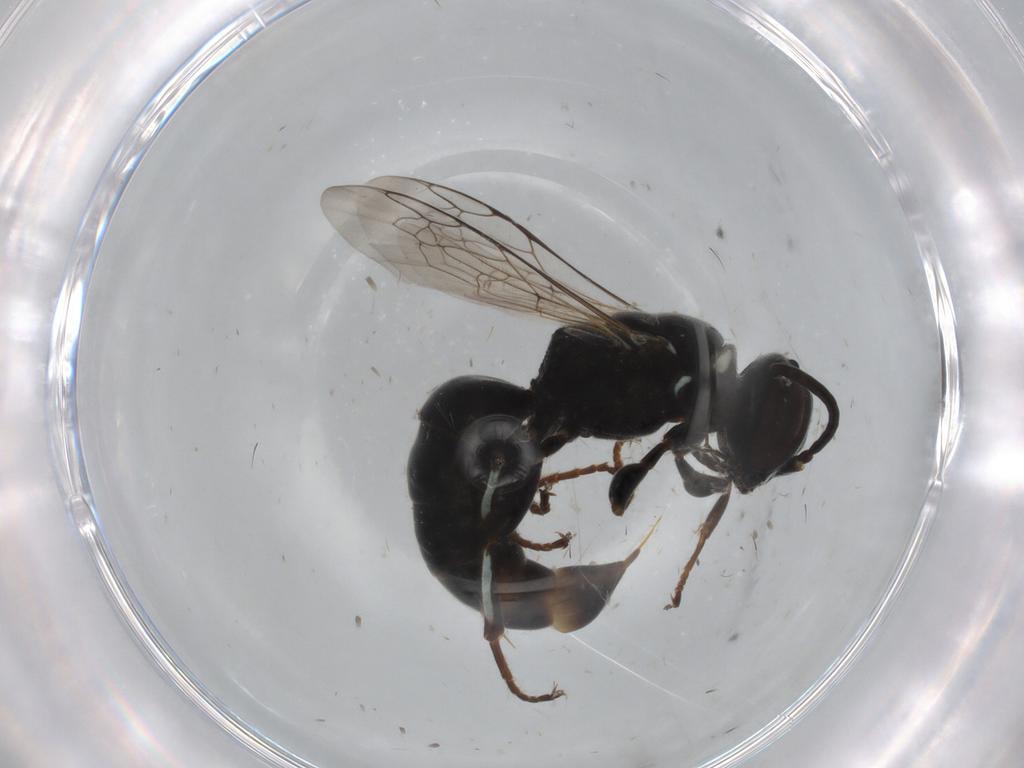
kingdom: Animalia
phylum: Arthropoda
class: Insecta
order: Hymenoptera
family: Crabronidae
